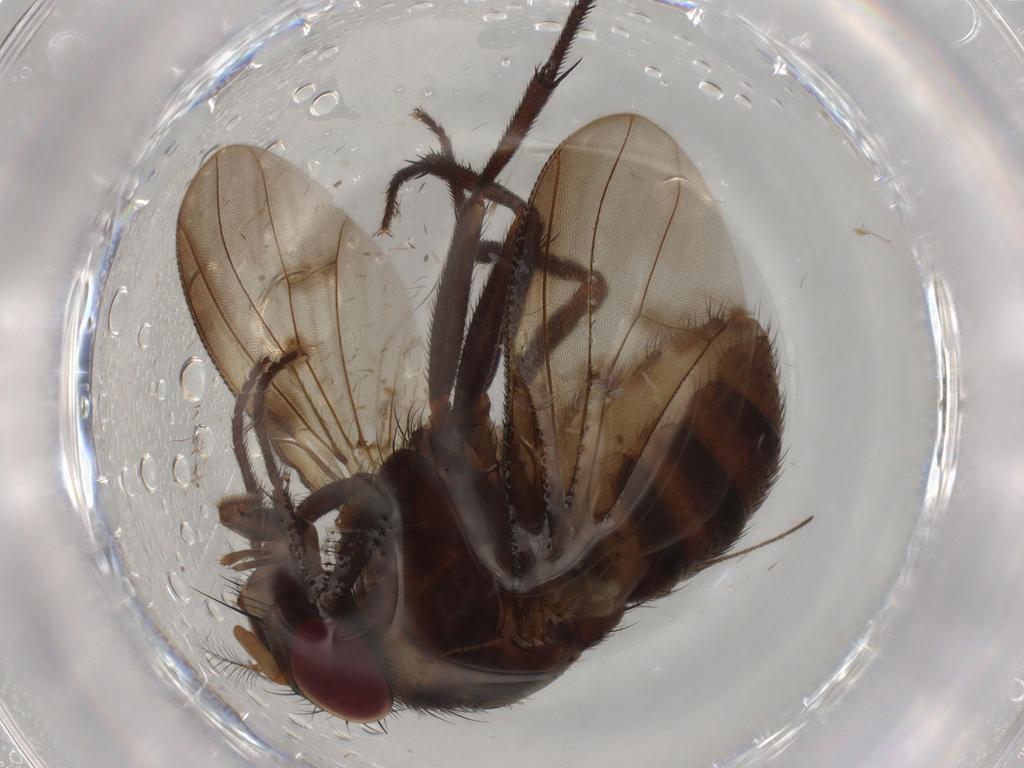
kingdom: Animalia
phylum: Arthropoda
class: Insecta
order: Diptera
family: Muscidae
